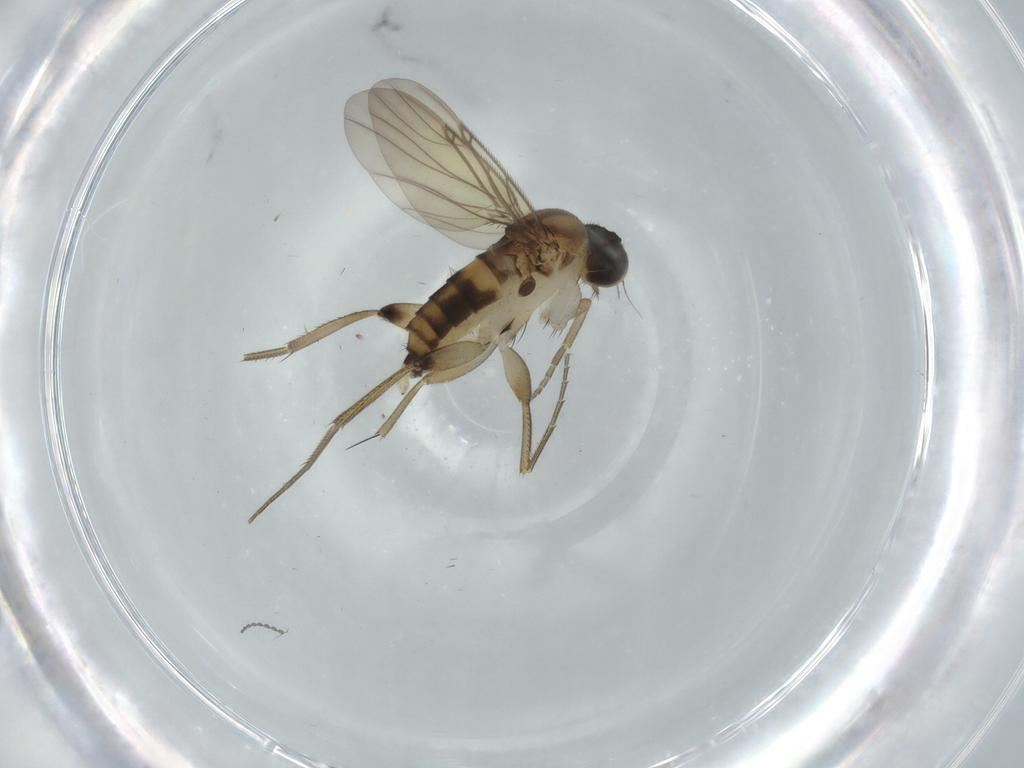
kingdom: Animalia
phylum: Arthropoda
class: Insecta
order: Diptera
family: Phoridae
